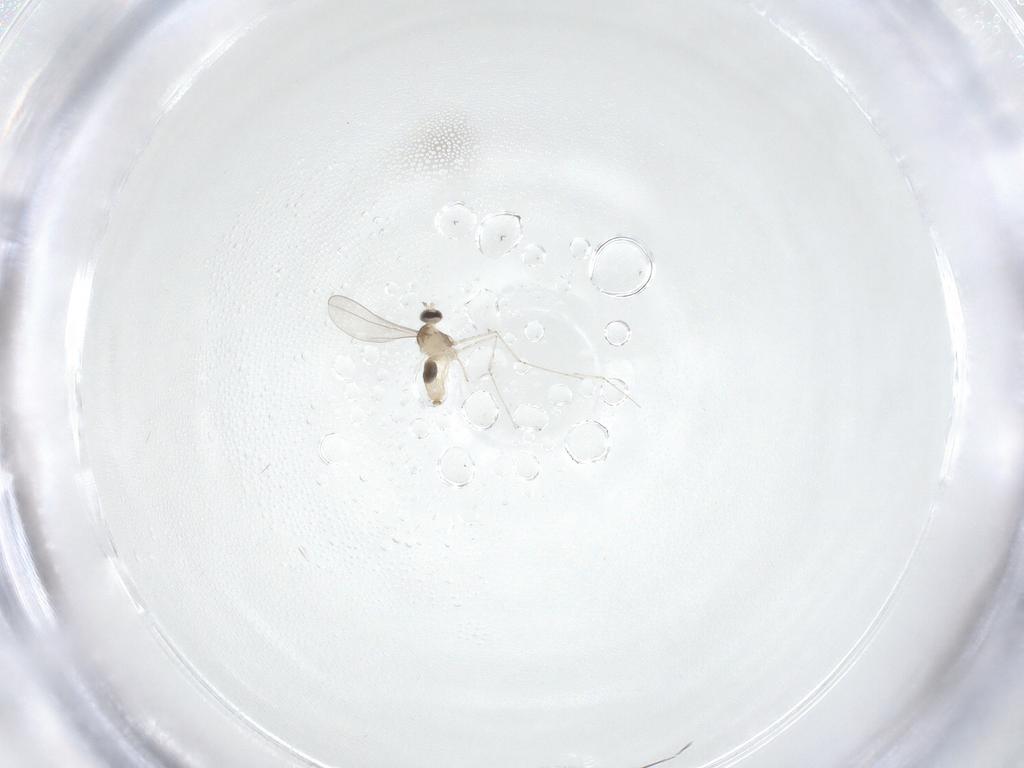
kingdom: Animalia
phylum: Arthropoda
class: Insecta
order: Diptera
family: Cecidomyiidae
